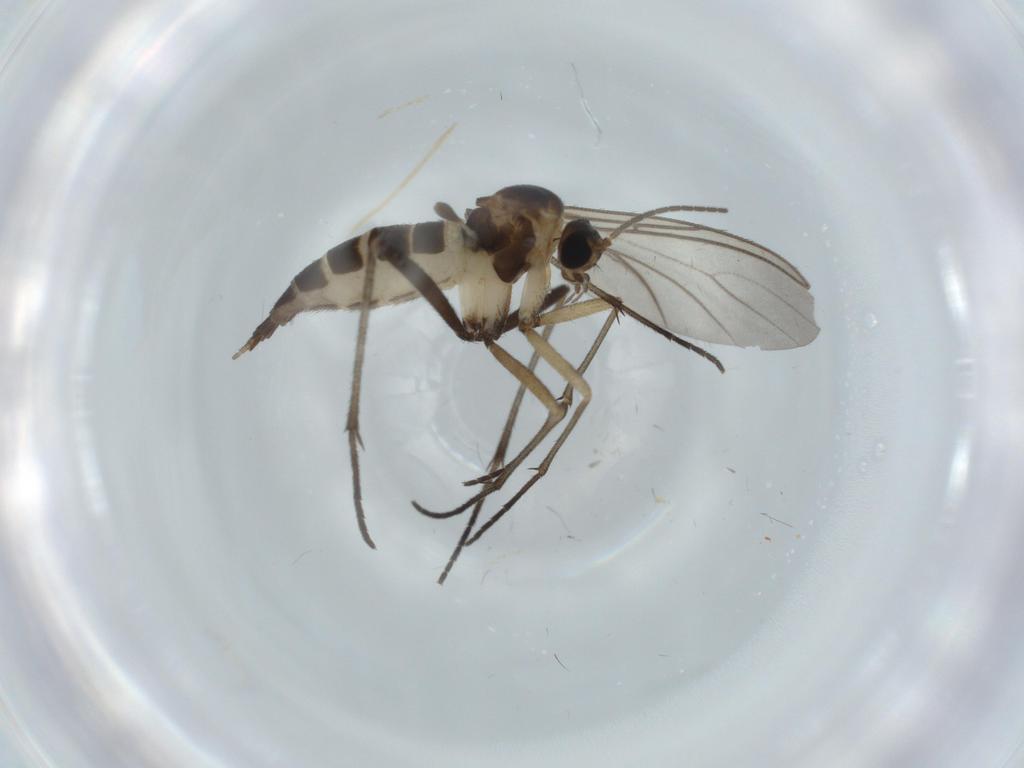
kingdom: Animalia
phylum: Arthropoda
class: Insecta
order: Diptera
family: Sciaridae
